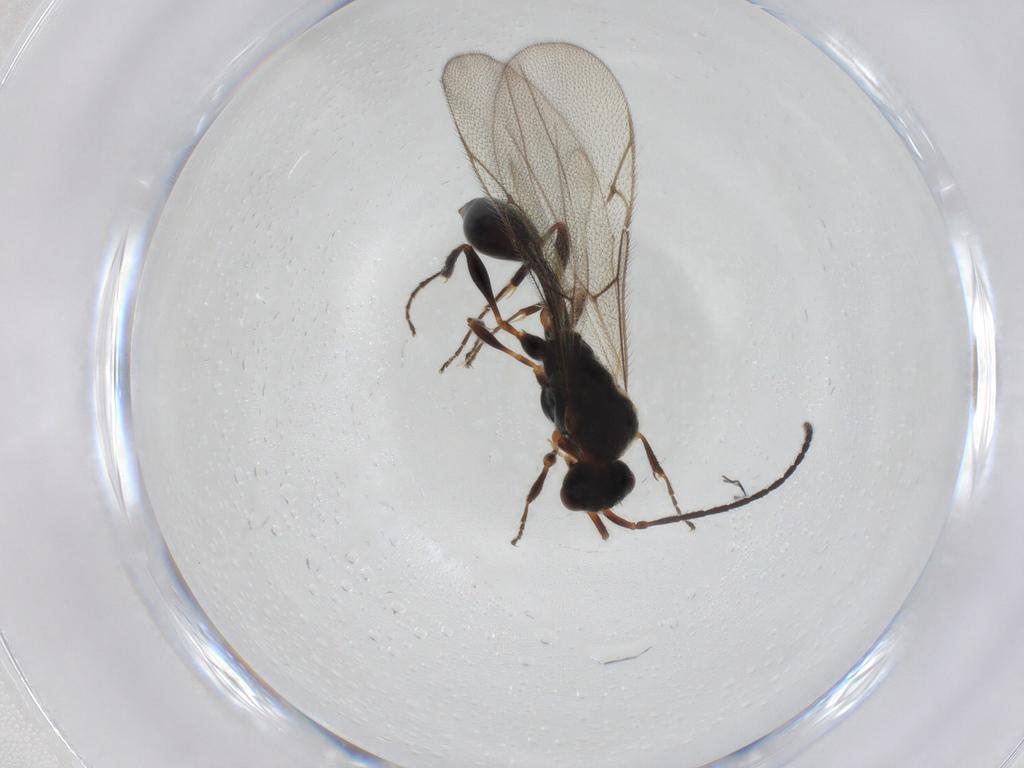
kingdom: Animalia
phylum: Arthropoda
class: Insecta
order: Hymenoptera
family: Diapriidae
